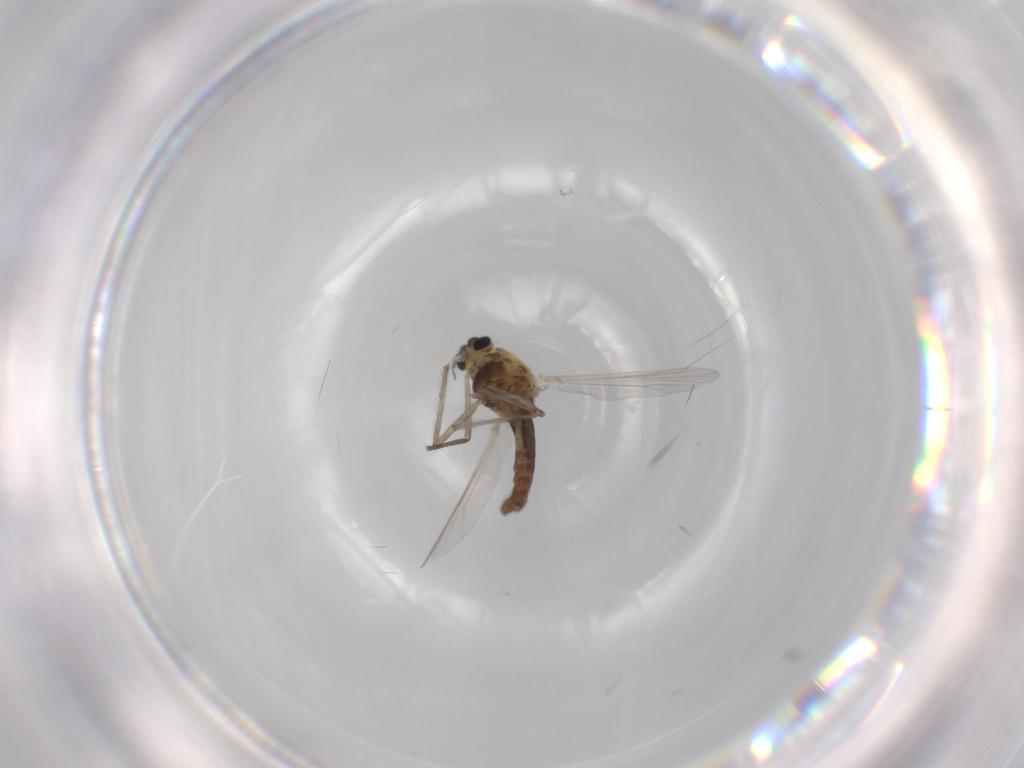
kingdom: Animalia
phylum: Arthropoda
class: Insecta
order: Diptera
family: Chironomidae
